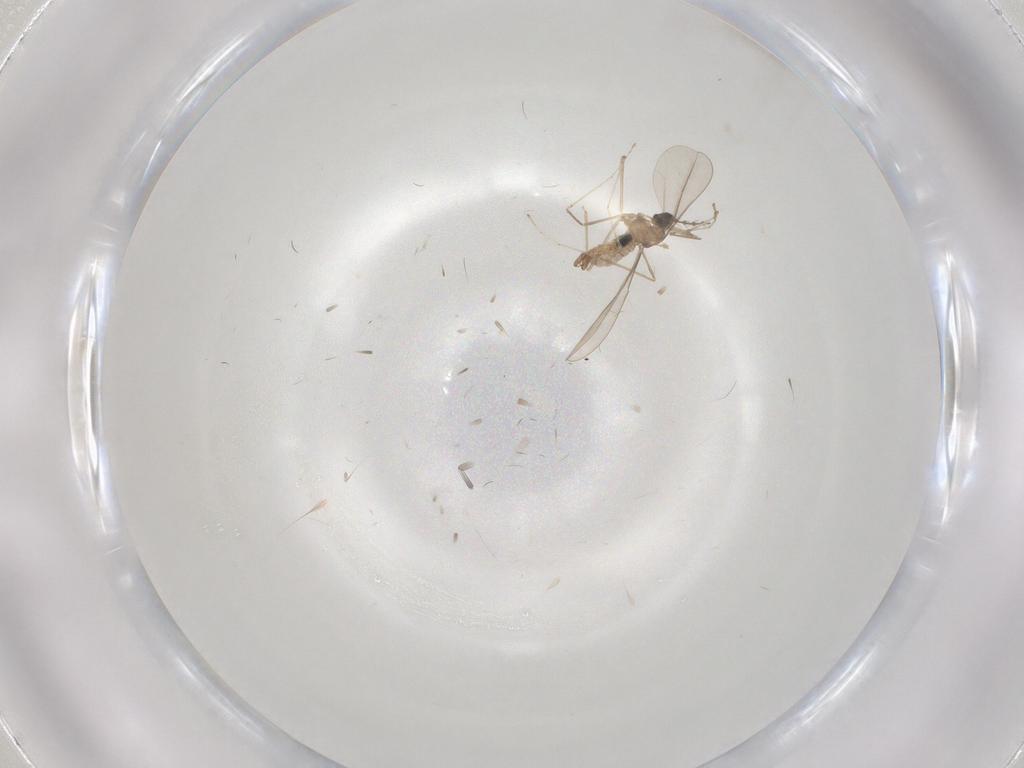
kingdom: Animalia
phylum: Arthropoda
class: Insecta
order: Diptera
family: Cecidomyiidae
